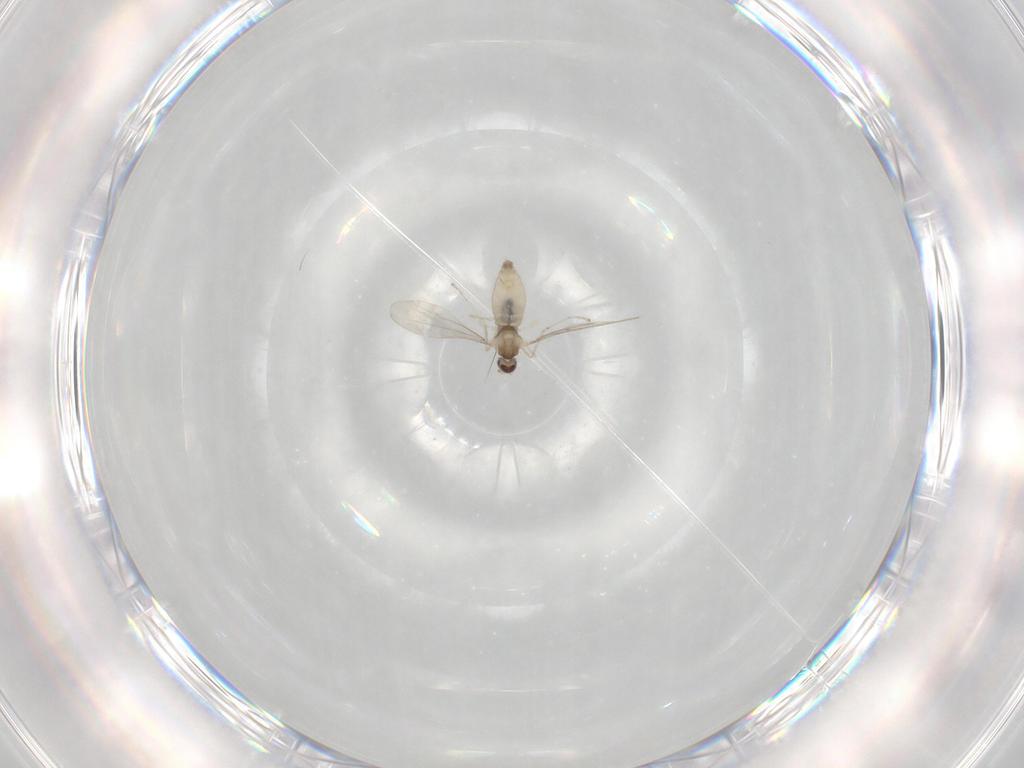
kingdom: Animalia
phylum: Arthropoda
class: Insecta
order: Diptera
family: Cecidomyiidae
